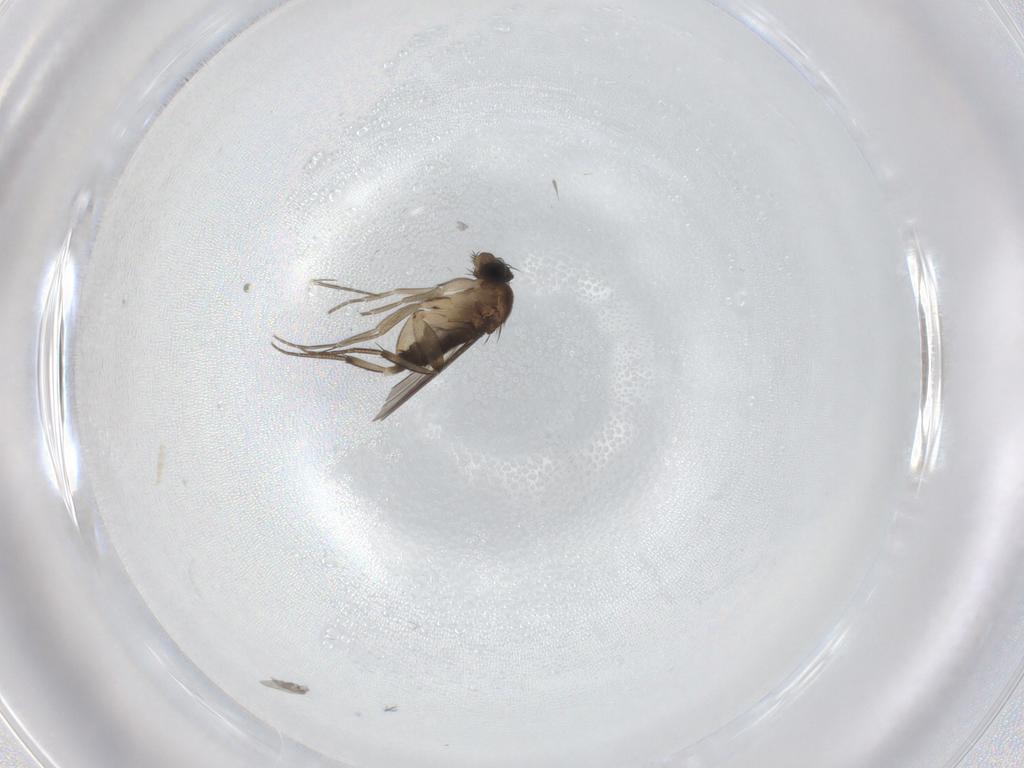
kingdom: Animalia
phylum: Arthropoda
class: Insecta
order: Diptera
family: Phoridae
